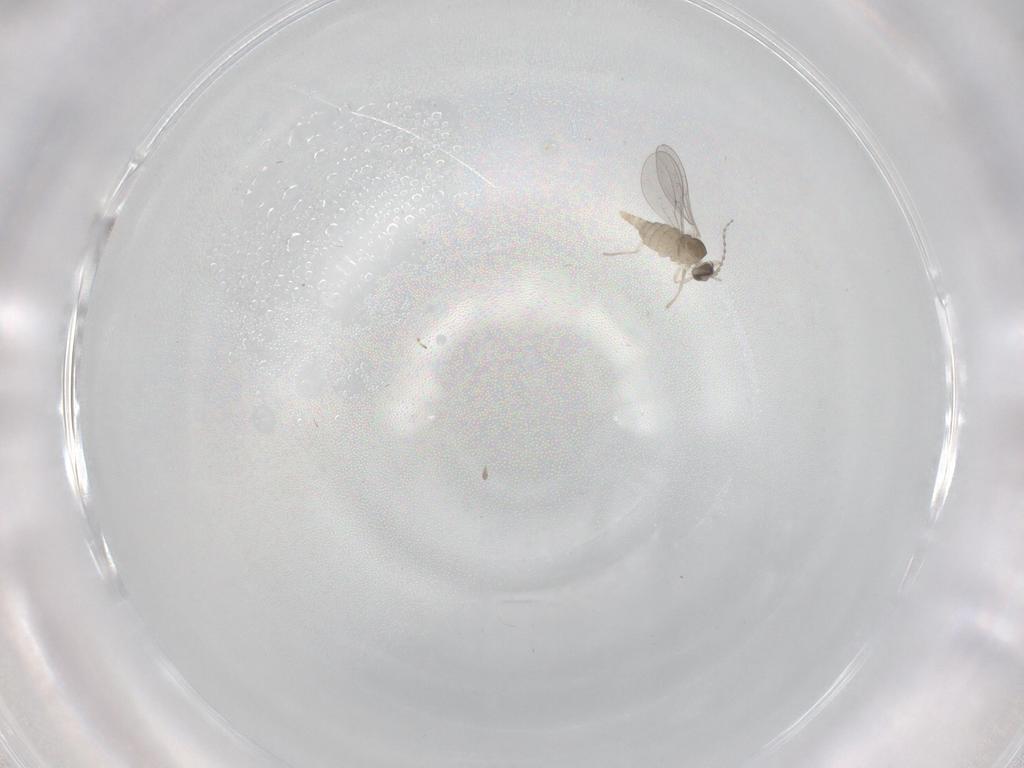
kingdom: Animalia
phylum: Arthropoda
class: Insecta
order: Diptera
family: Cecidomyiidae
